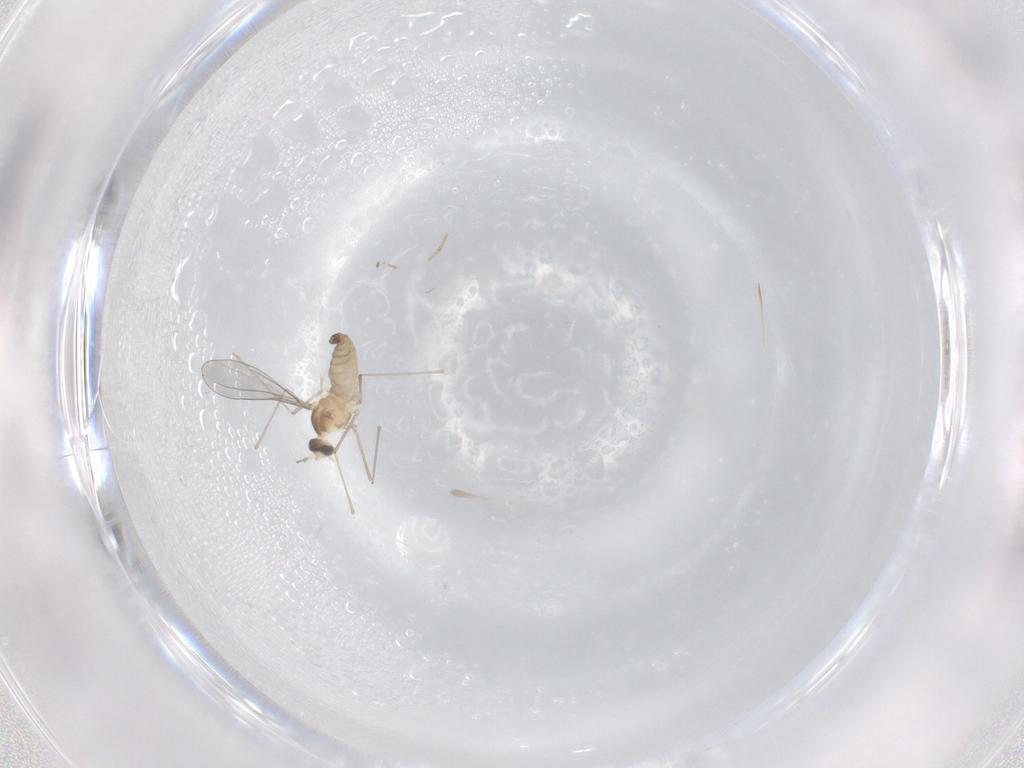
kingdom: Animalia
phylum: Arthropoda
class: Insecta
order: Diptera
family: Cecidomyiidae
